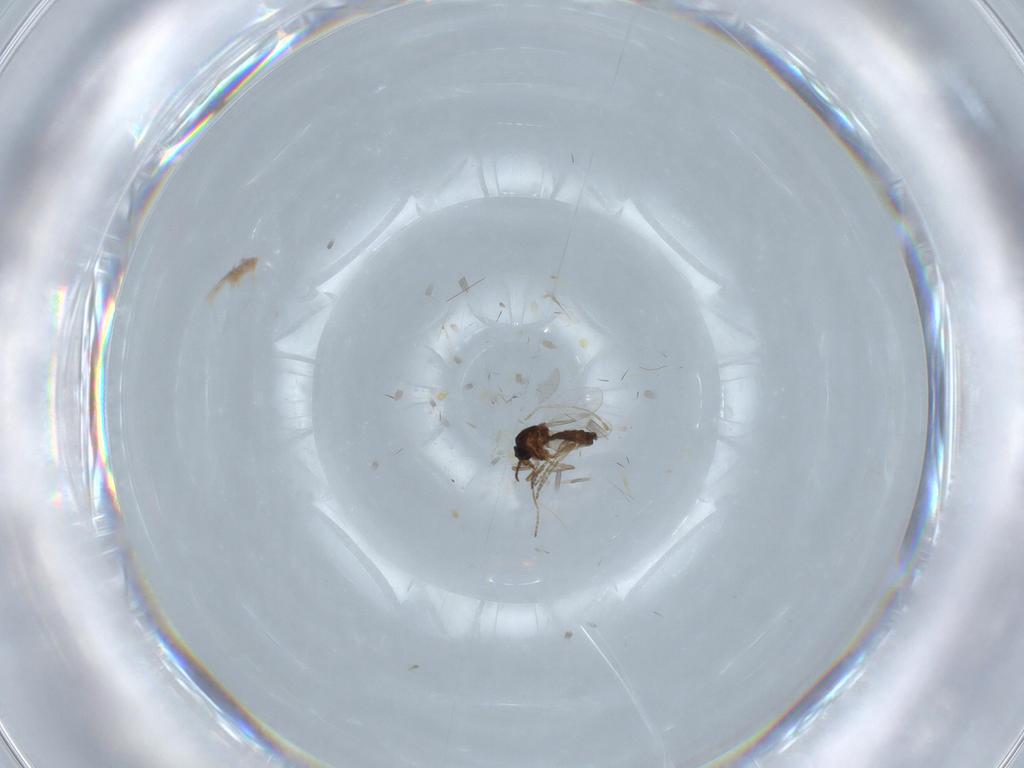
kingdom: Animalia
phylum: Arthropoda
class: Insecta
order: Diptera
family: Ceratopogonidae
